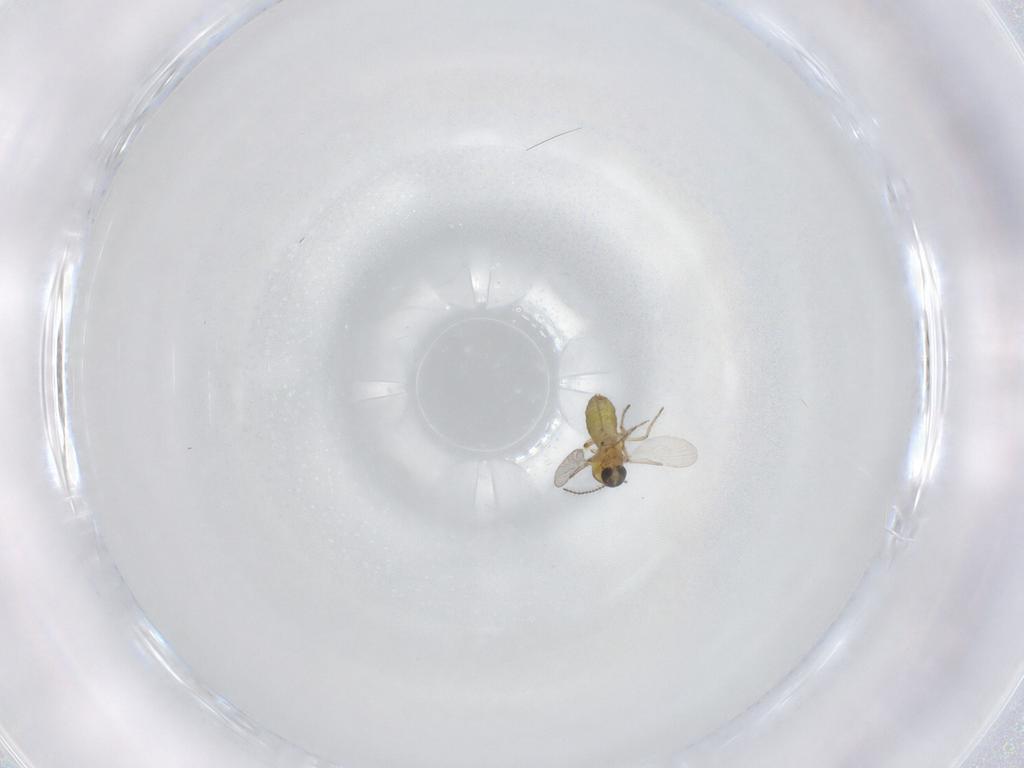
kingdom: Animalia
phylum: Arthropoda
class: Insecta
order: Diptera
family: Ceratopogonidae
